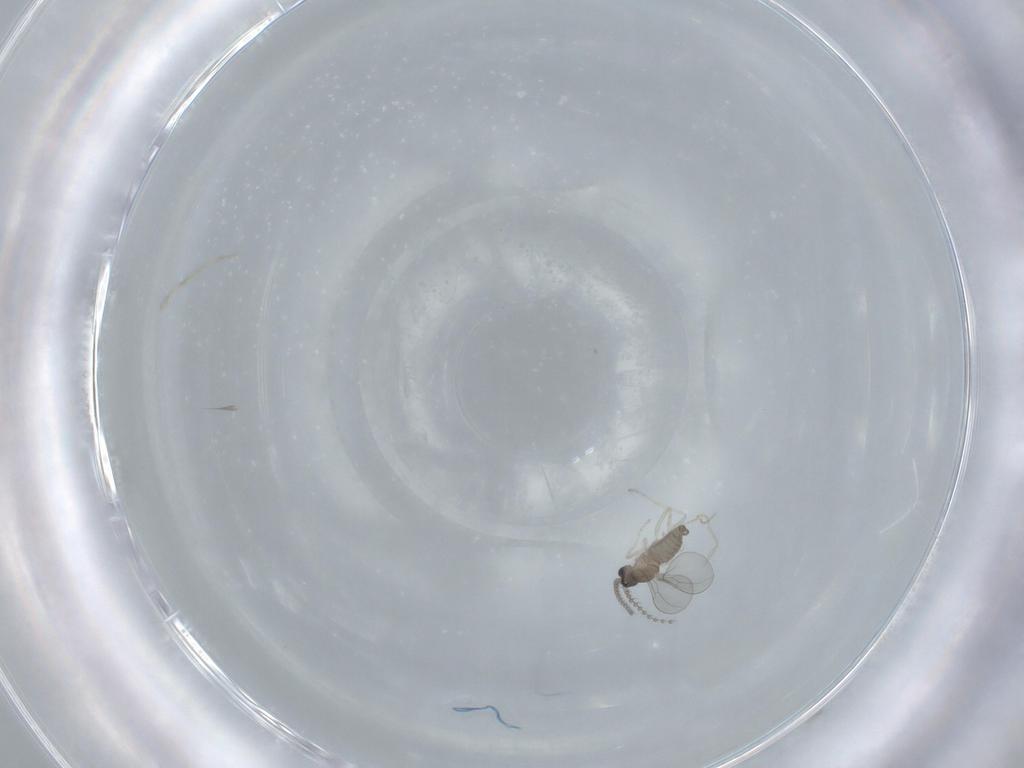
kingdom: Animalia
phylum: Arthropoda
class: Insecta
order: Diptera
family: Cecidomyiidae
